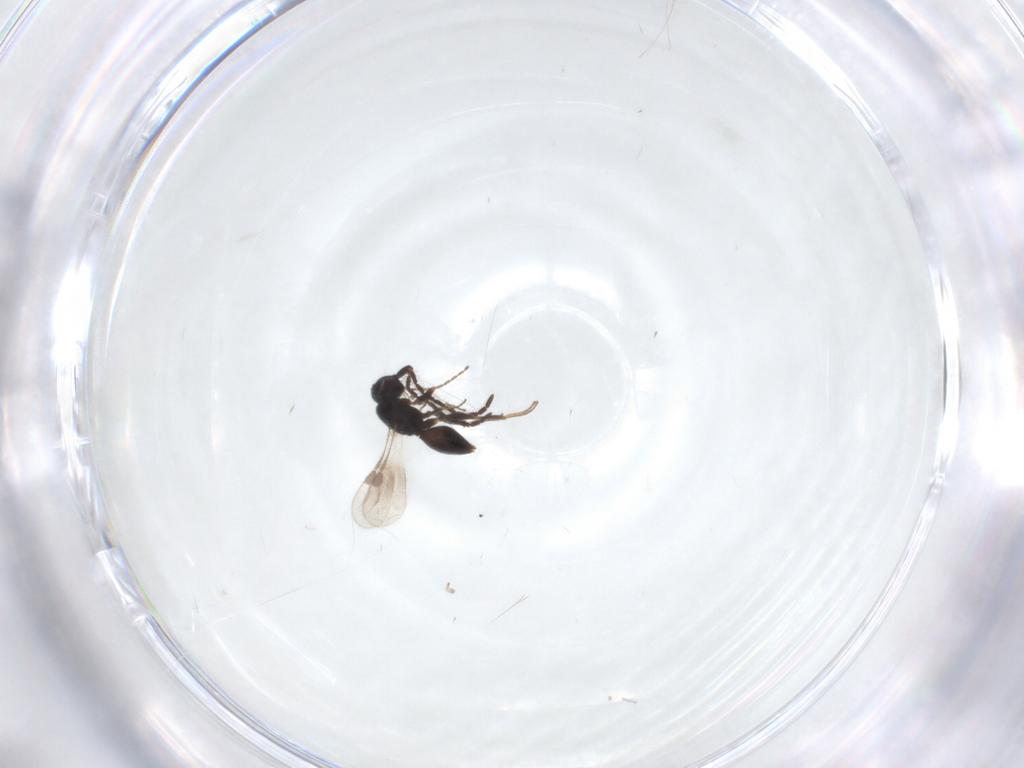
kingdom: Animalia
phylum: Arthropoda
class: Insecta
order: Hymenoptera
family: Megaspilidae
